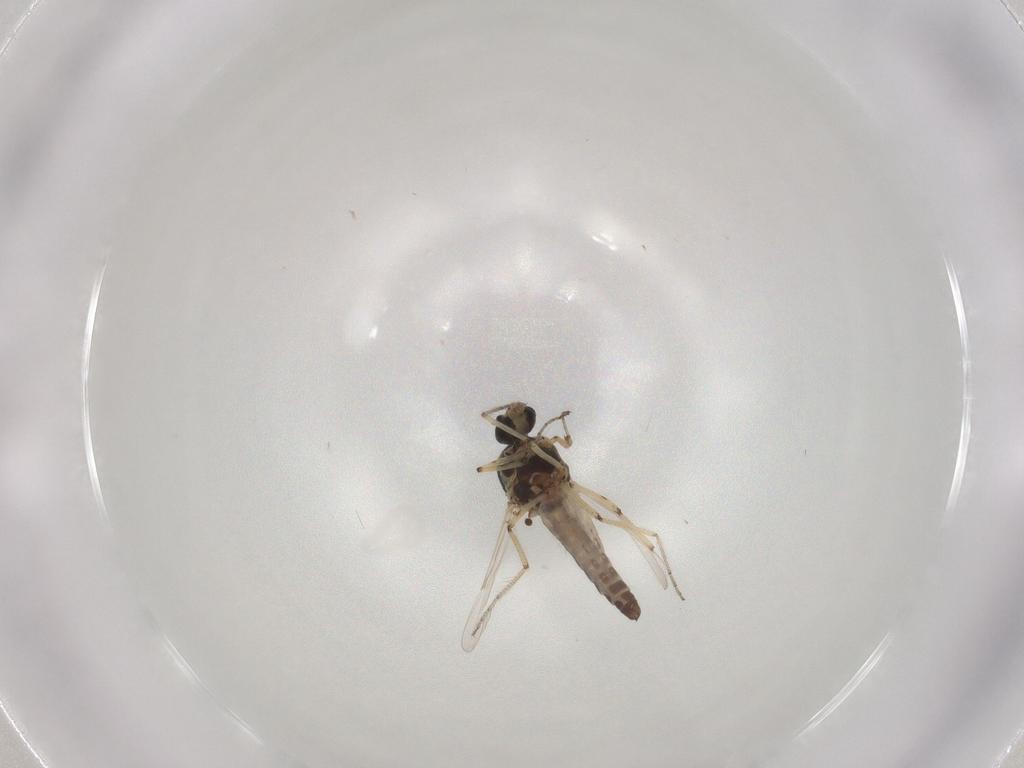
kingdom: Animalia
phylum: Arthropoda
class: Insecta
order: Diptera
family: Ceratopogonidae
